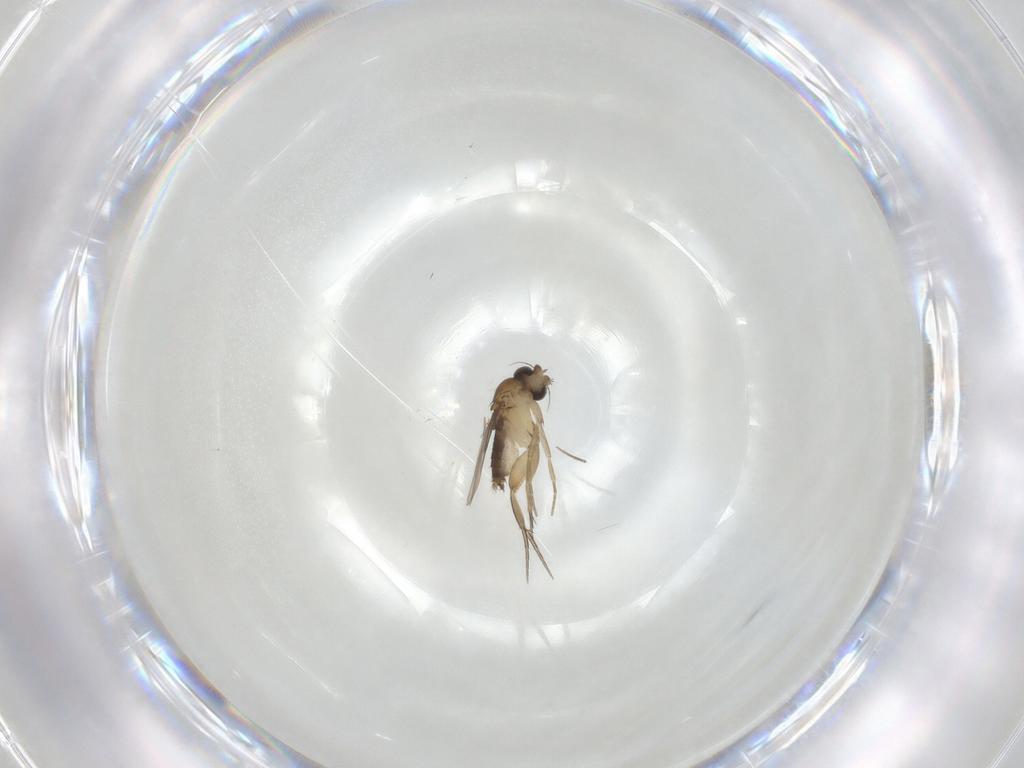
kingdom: Animalia
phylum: Arthropoda
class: Insecta
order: Diptera
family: Phoridae
